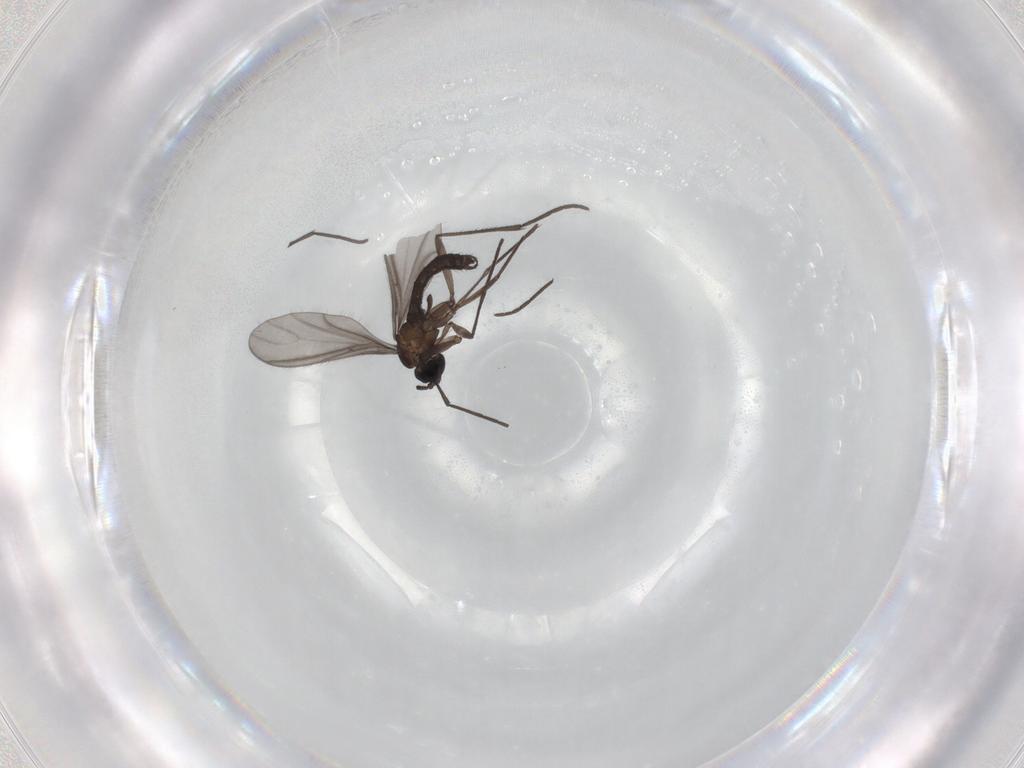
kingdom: Animalia
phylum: Arthropoda
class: Insecta
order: Diptera
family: Sciaridae
